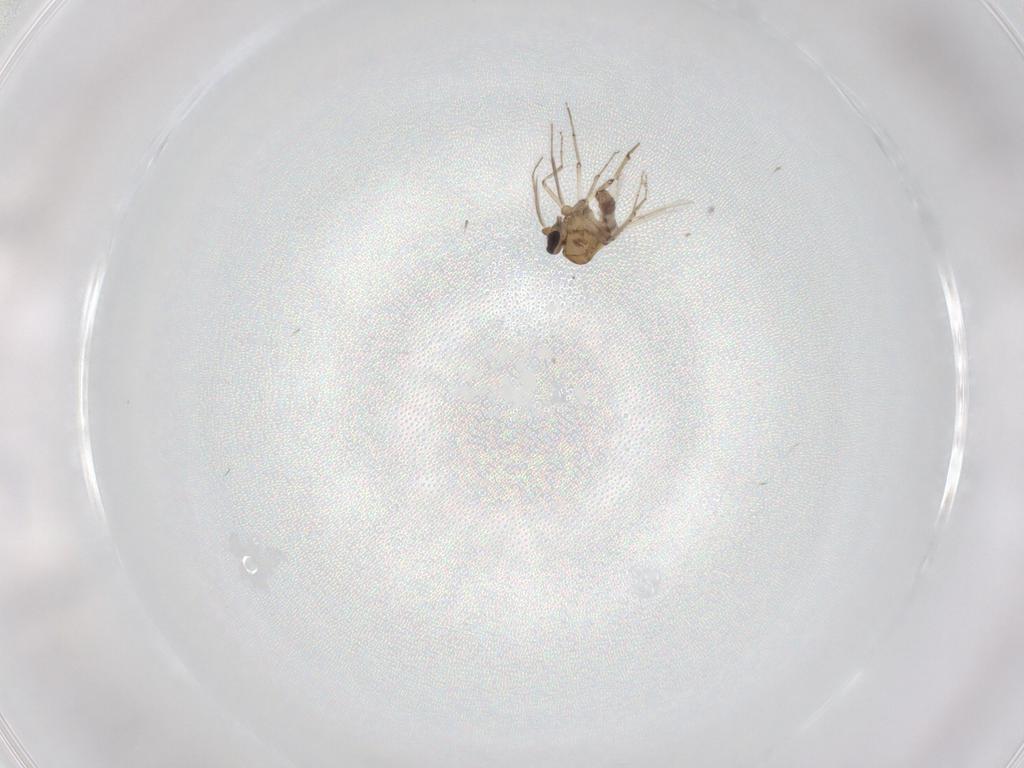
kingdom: Animalia
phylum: Arthropoda
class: Insecta
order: Diptera
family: Ceratopogonidae
